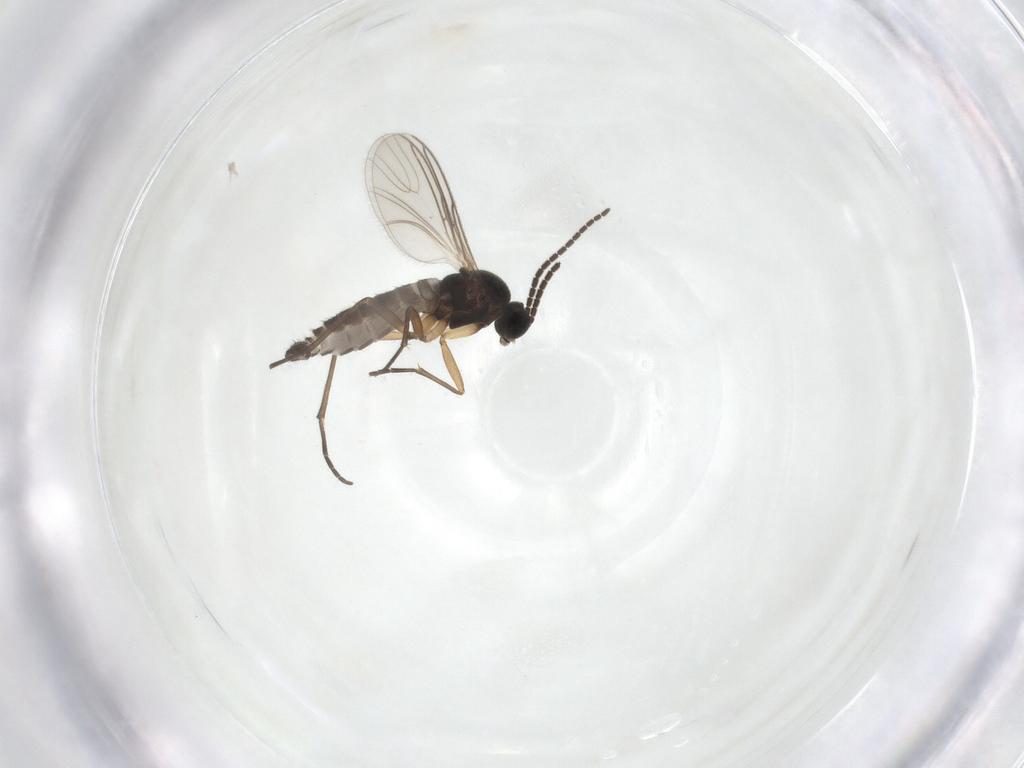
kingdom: Animalia
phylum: Arthropoda
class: Insecta
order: Diptera
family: Sciaridae
